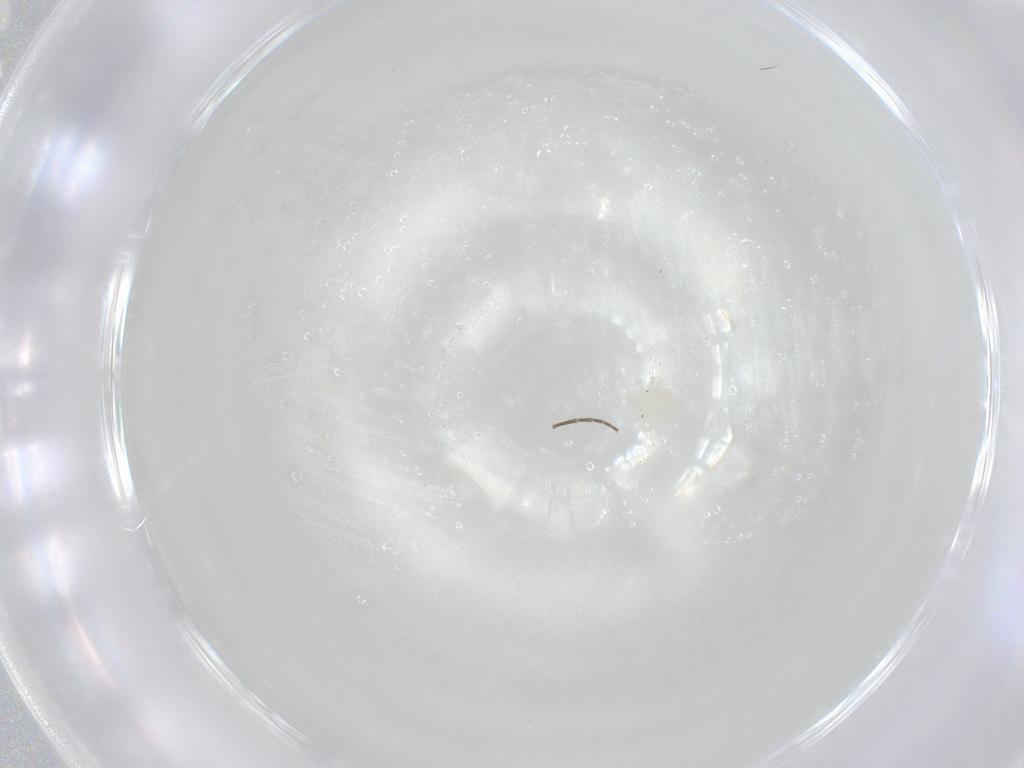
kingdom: Animalia
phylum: Arthropoda
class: Arachnida
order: Trombidiformes
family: Anystidae
